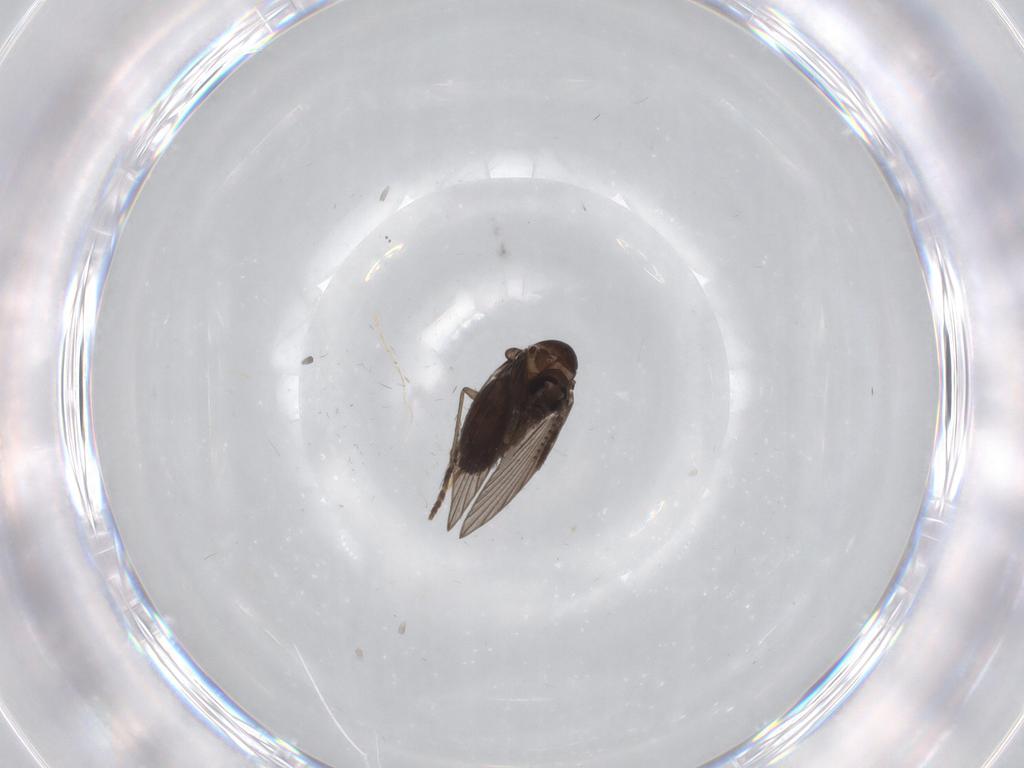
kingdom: Animalia
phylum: Arthropoda
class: Insecta
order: Diptera
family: Psychodidae
